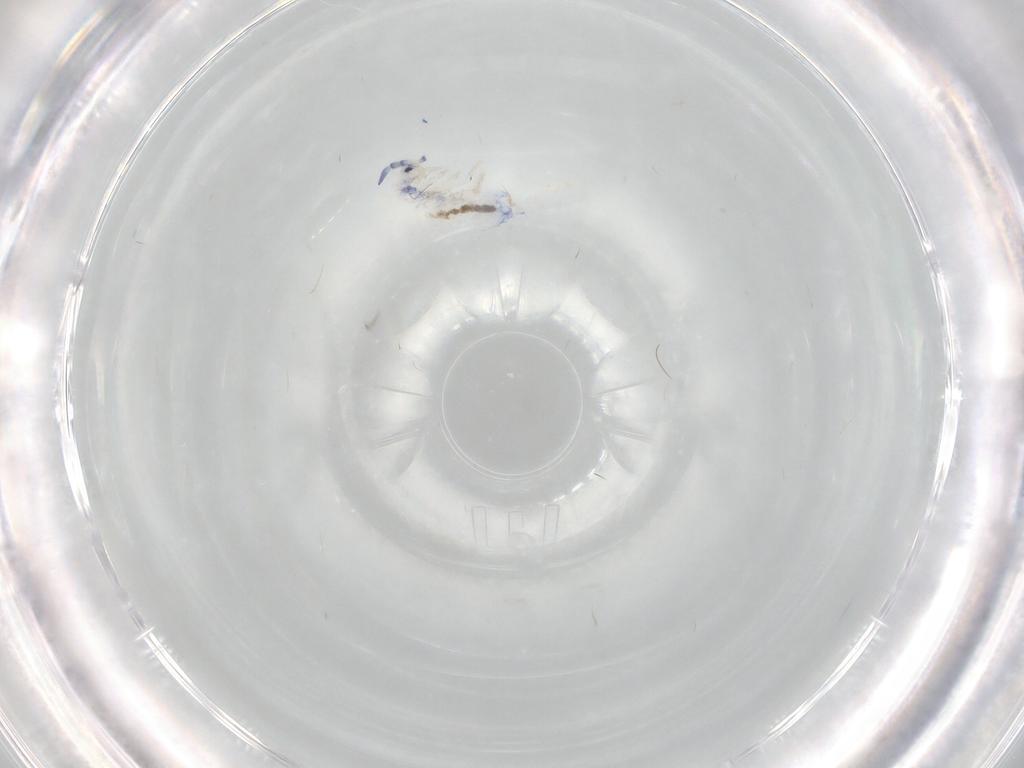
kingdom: Animalia
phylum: Arthropoda
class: Collembola
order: Entomobryomorpha
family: Entomobryidae
